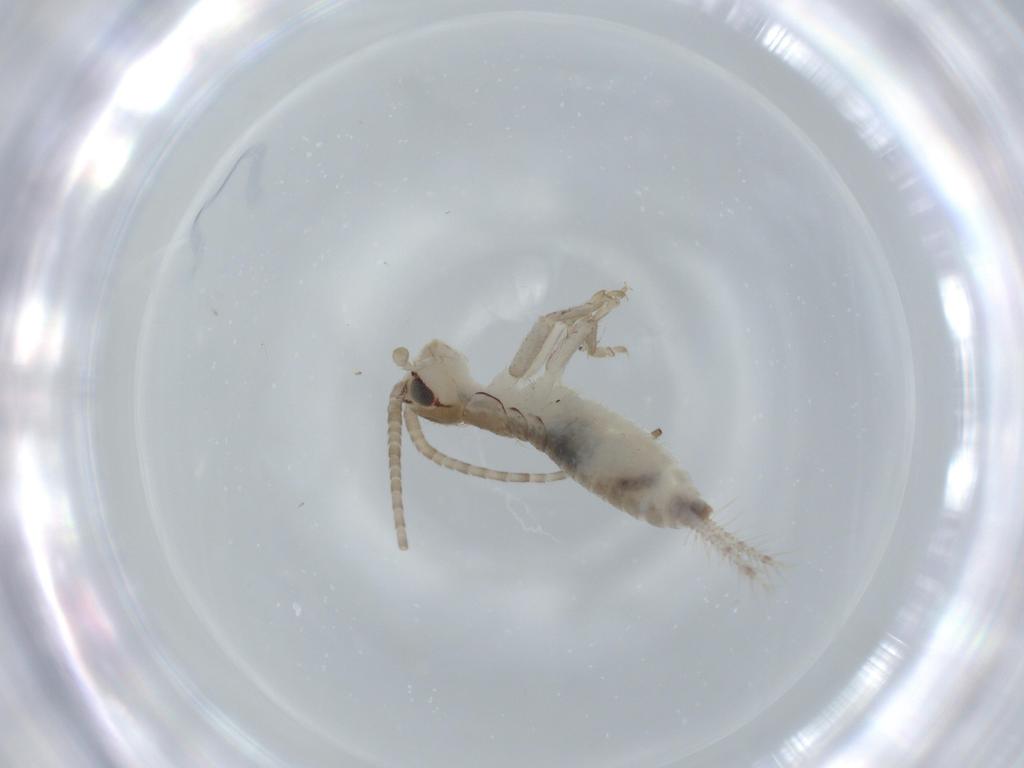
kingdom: Animalia
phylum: Arthropoda
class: Insecta
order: Orthoptera
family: Gryllidae
